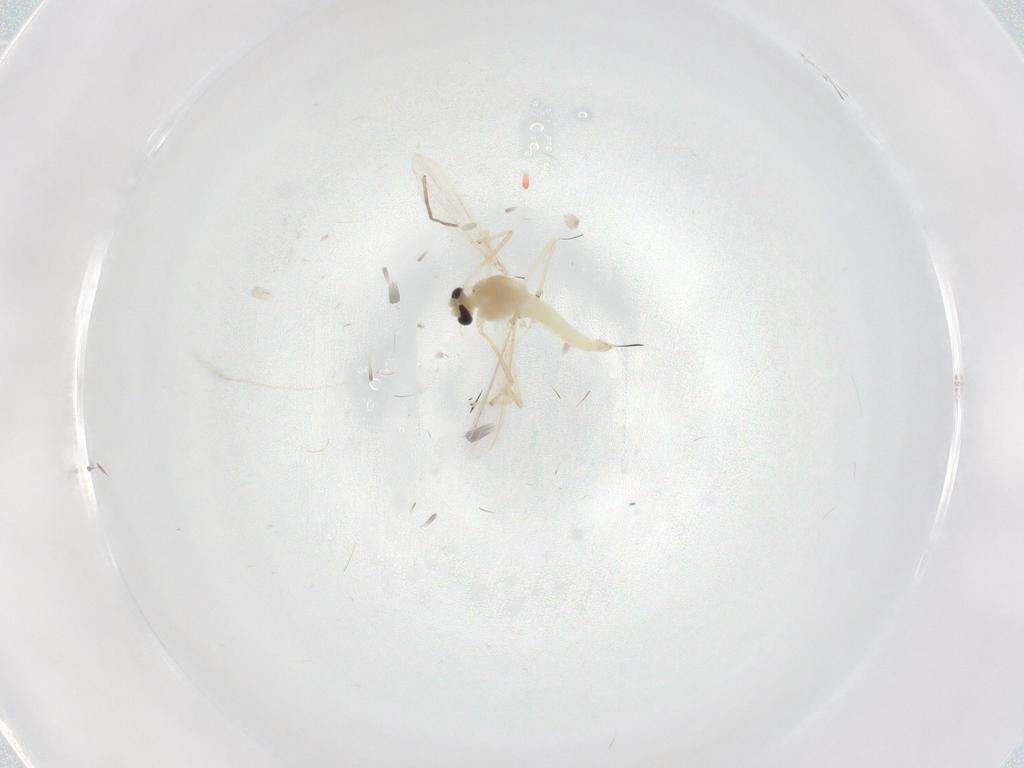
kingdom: Animalia
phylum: Arthropoda
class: Insecta
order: Diptera
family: Chironomidae
